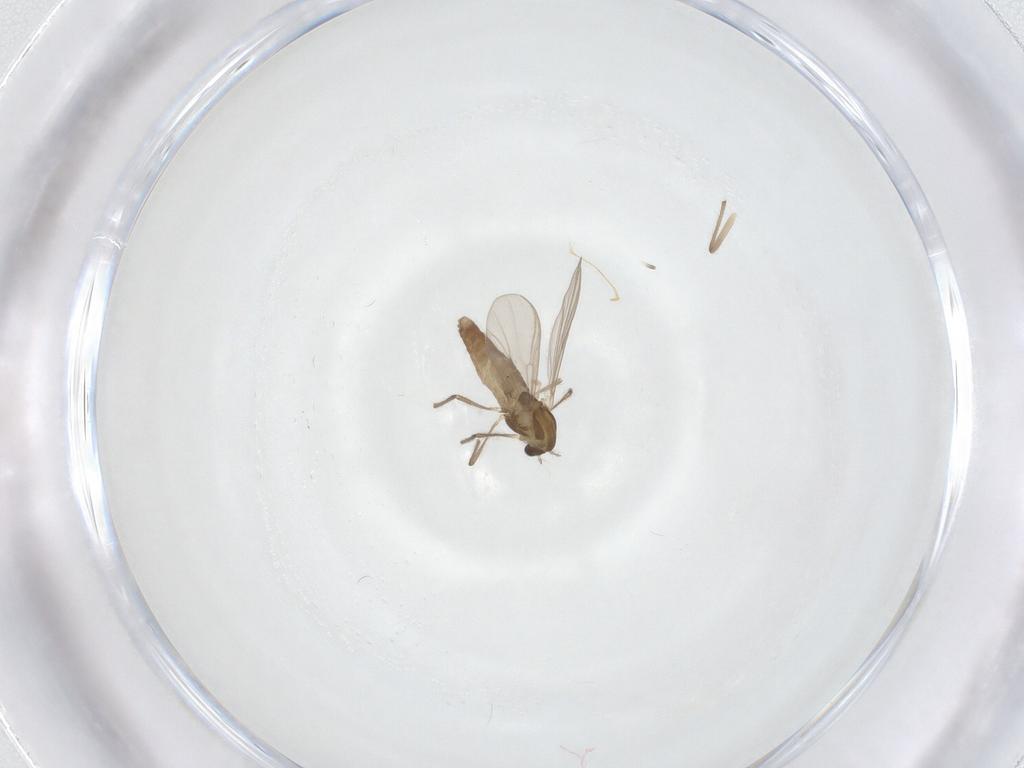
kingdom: Animalia
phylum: Arthropoda
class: Insecta
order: Diptera
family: Chironomidae
